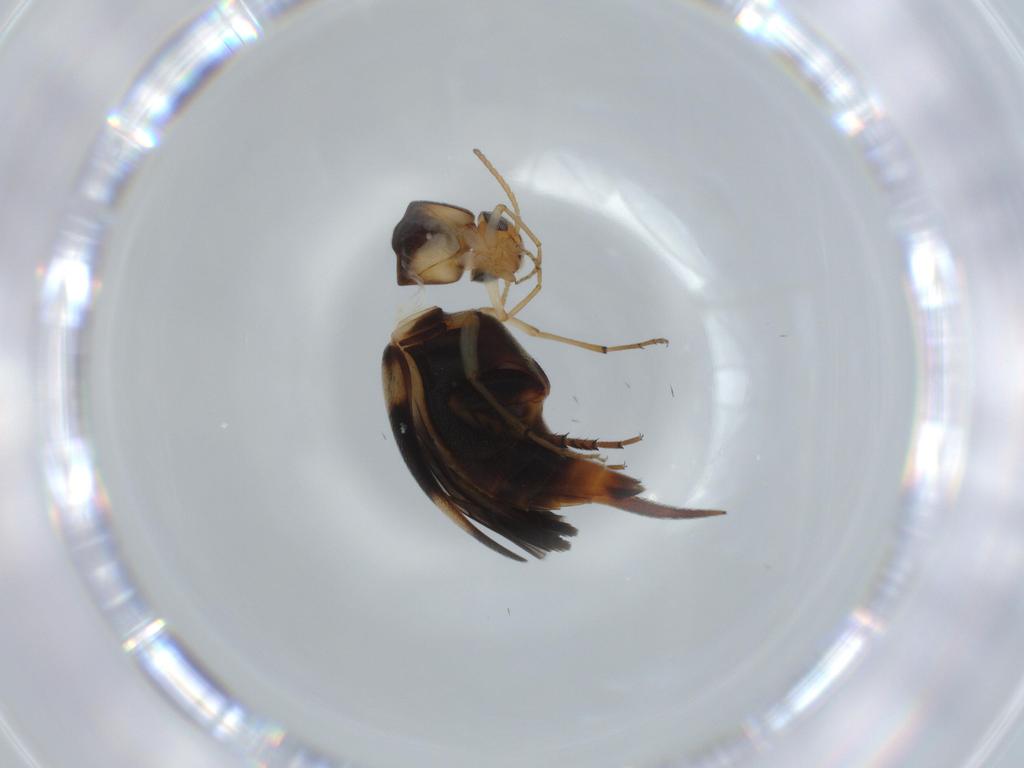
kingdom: Animalia
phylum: Arthropoda
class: Insecta
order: Coleoptera
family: Mordellidae
